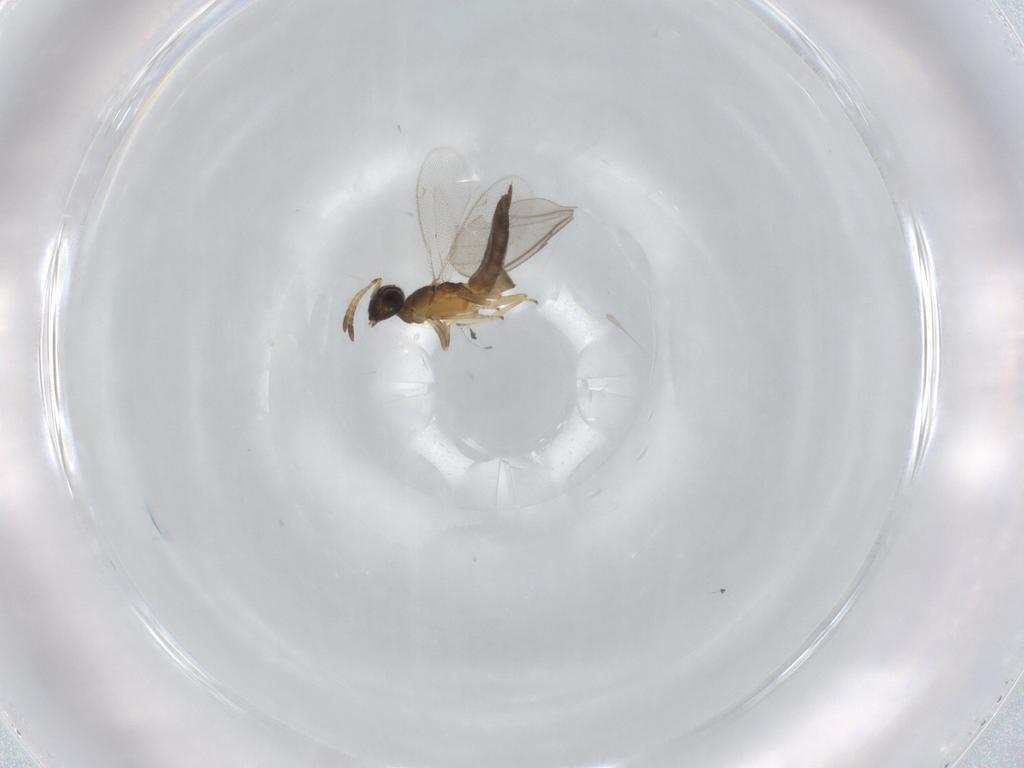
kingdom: Animalia
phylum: Arthropoda
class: Insecta
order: Hymenoptera
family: Eupelmidae
